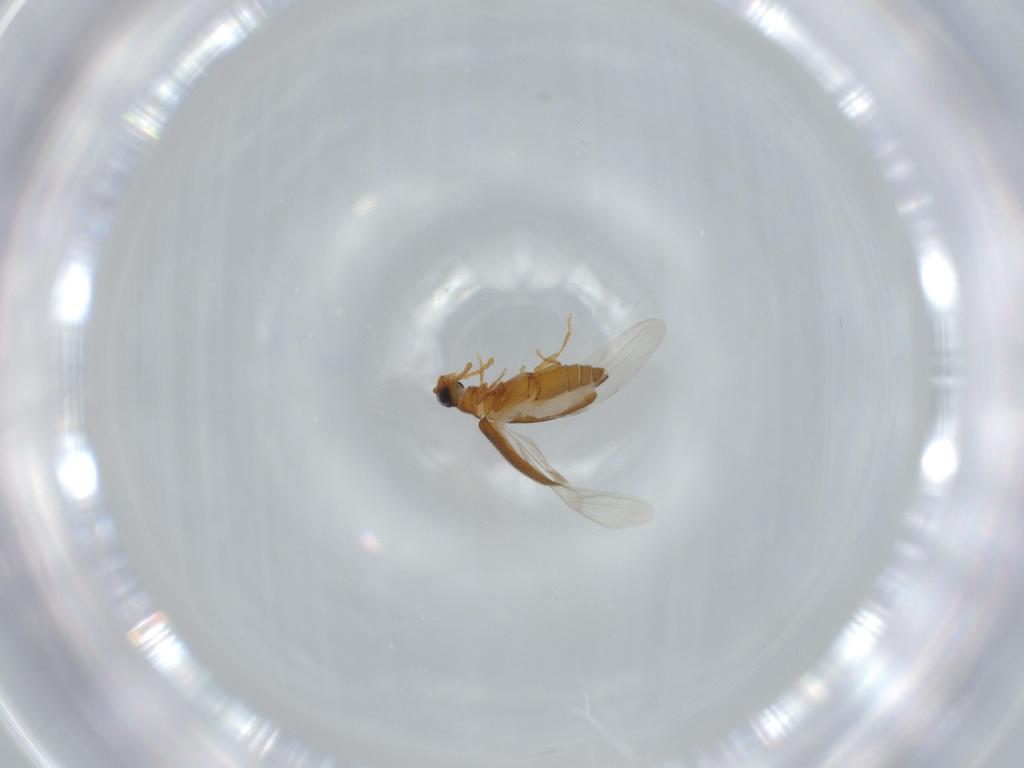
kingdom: Animalia
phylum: Arthropoda
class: Insecta
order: Coleoptera
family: Aderidae
